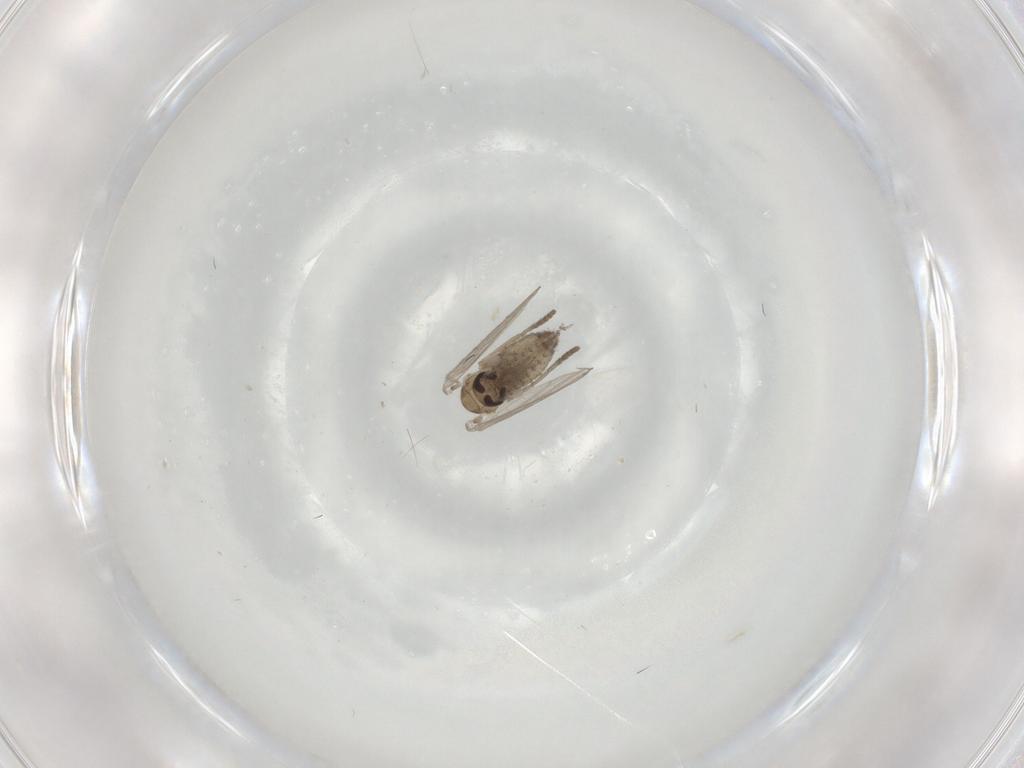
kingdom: Animalia
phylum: Arthropoda
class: Insecta
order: Diptera
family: Psychodidae
